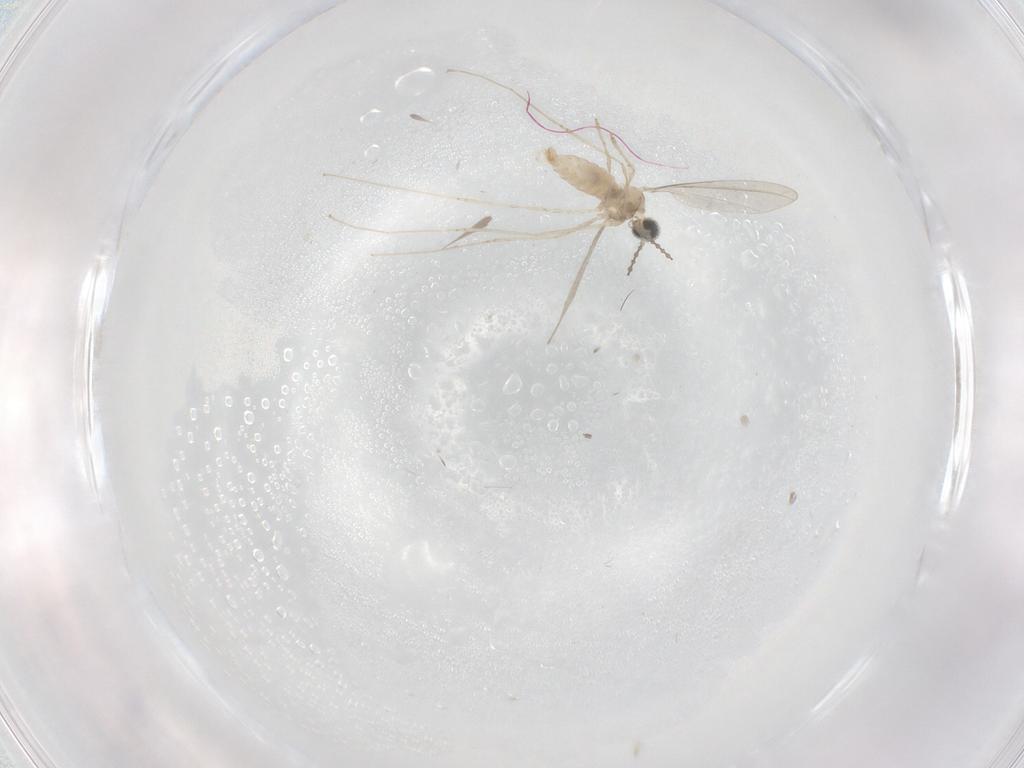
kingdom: Animalia
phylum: Arthropoda
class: Insecta
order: Diptera
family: Cecidomyiidae
